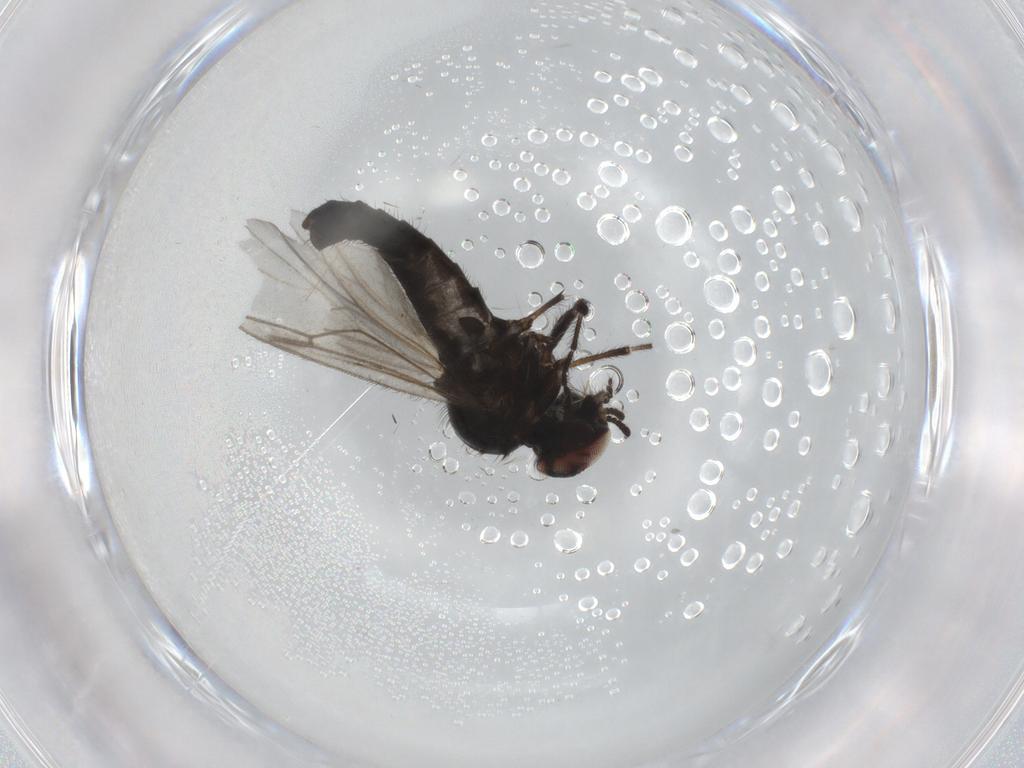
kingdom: Animalia
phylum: Arthropoda
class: Insecta
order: Diptera
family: Bibionidae
